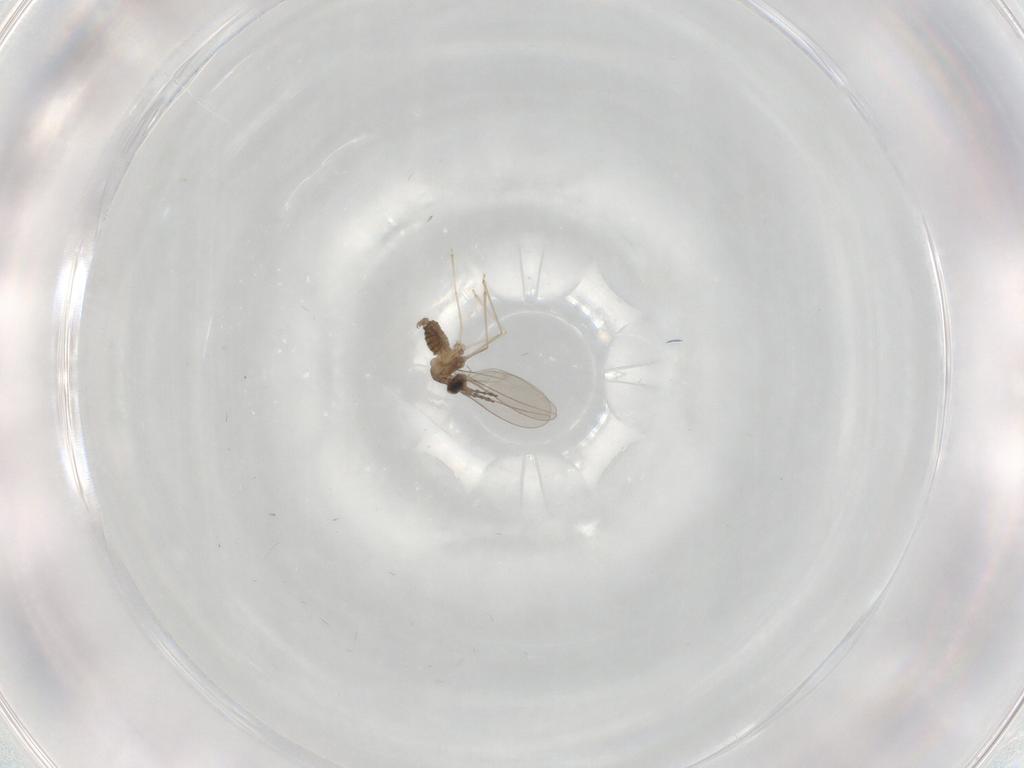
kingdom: Animalia
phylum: Arthropoda
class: Insecta
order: Diptera
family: Cecidomyiidae
